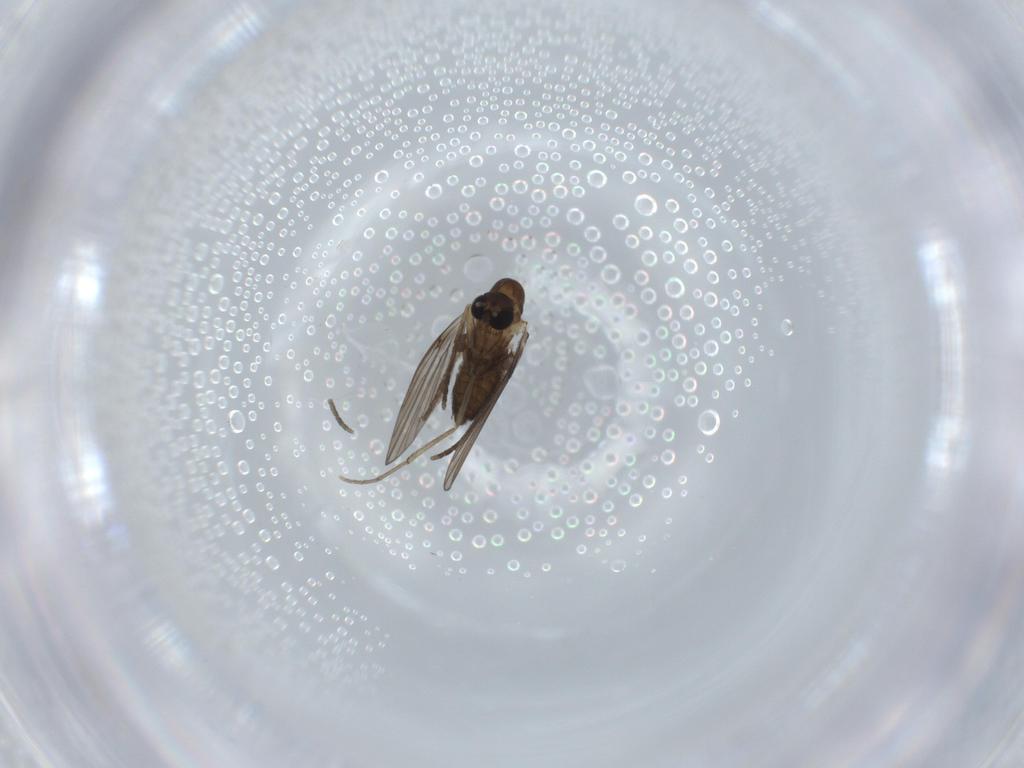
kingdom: Animalia
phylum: Arthropoda
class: Insecta
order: Diptera
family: Psychodidae
